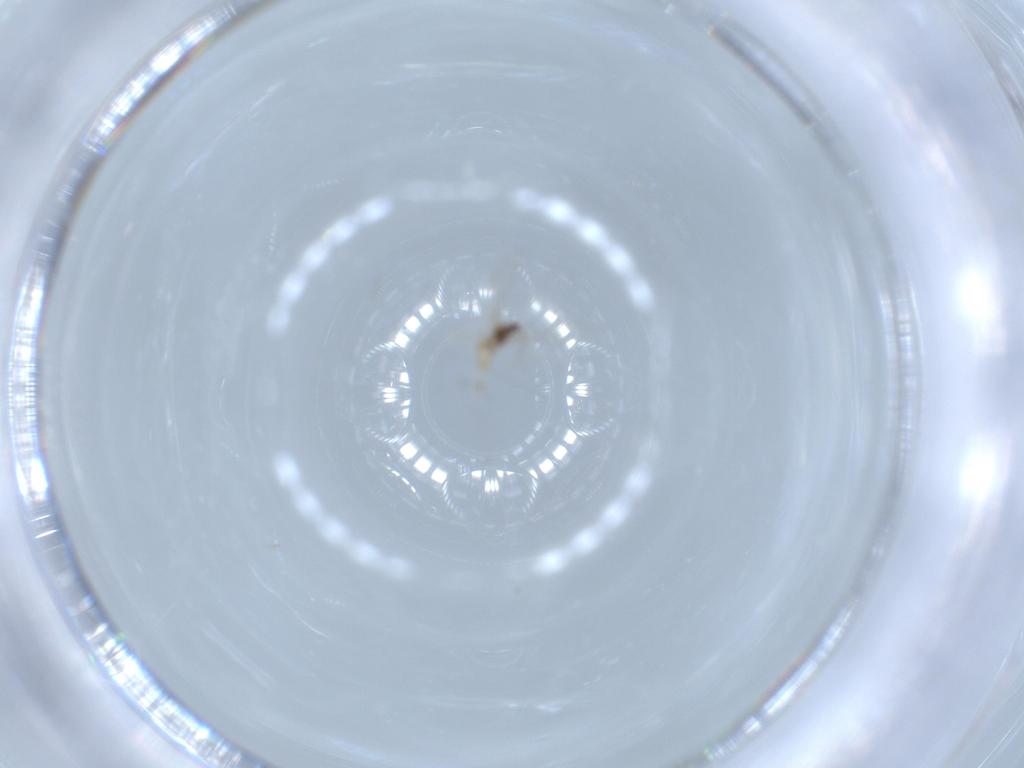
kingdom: Animalia
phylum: Arthropoda
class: Insecta
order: Diptera
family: Cecidomyiidae
